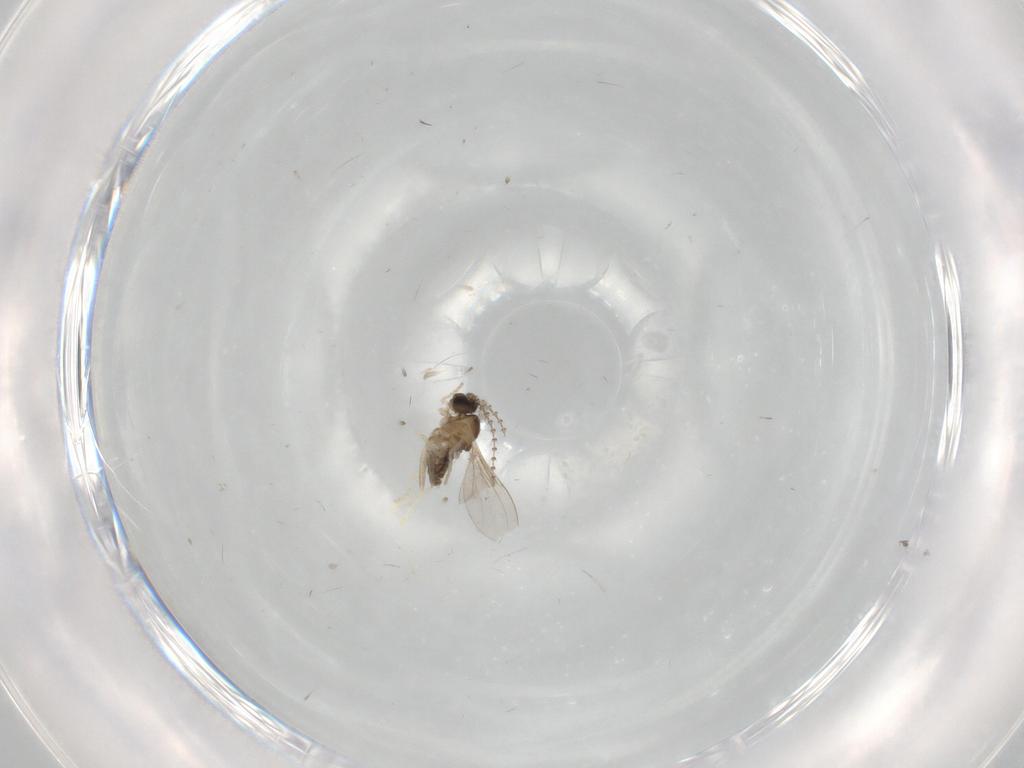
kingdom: Animalia
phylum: Arthropoda
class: Insecta
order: Diptera
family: Cecidomyiidae
